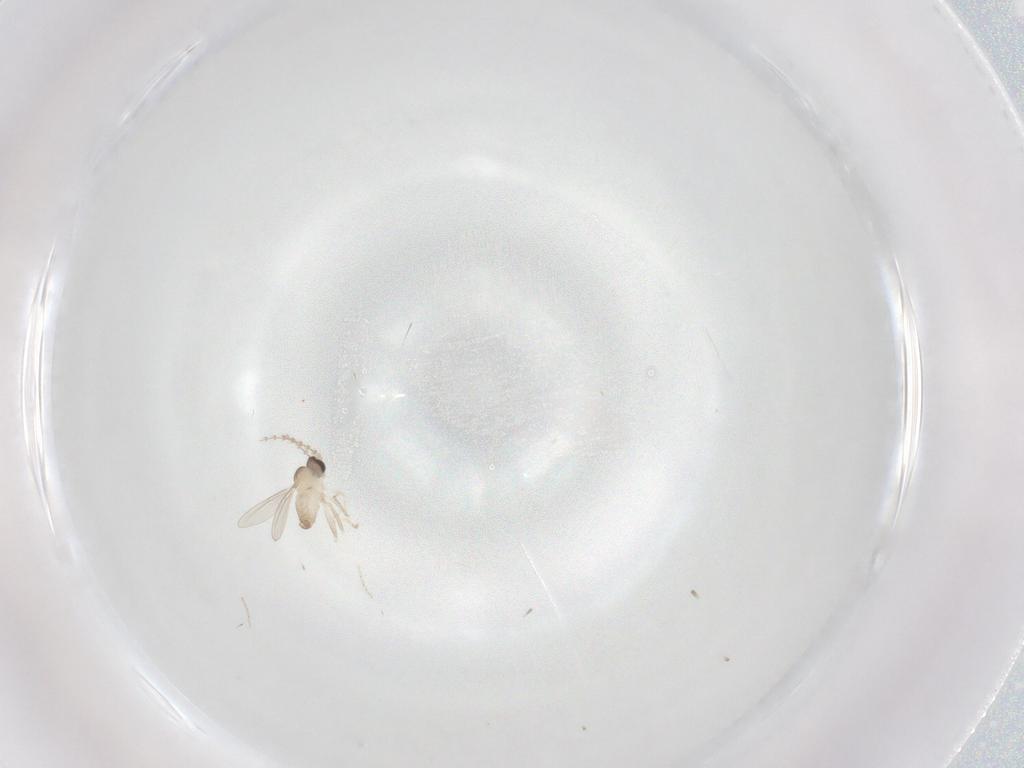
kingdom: Animalia
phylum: Arthropoda
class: Insecta
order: Diptera
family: Cecidomyiidae
